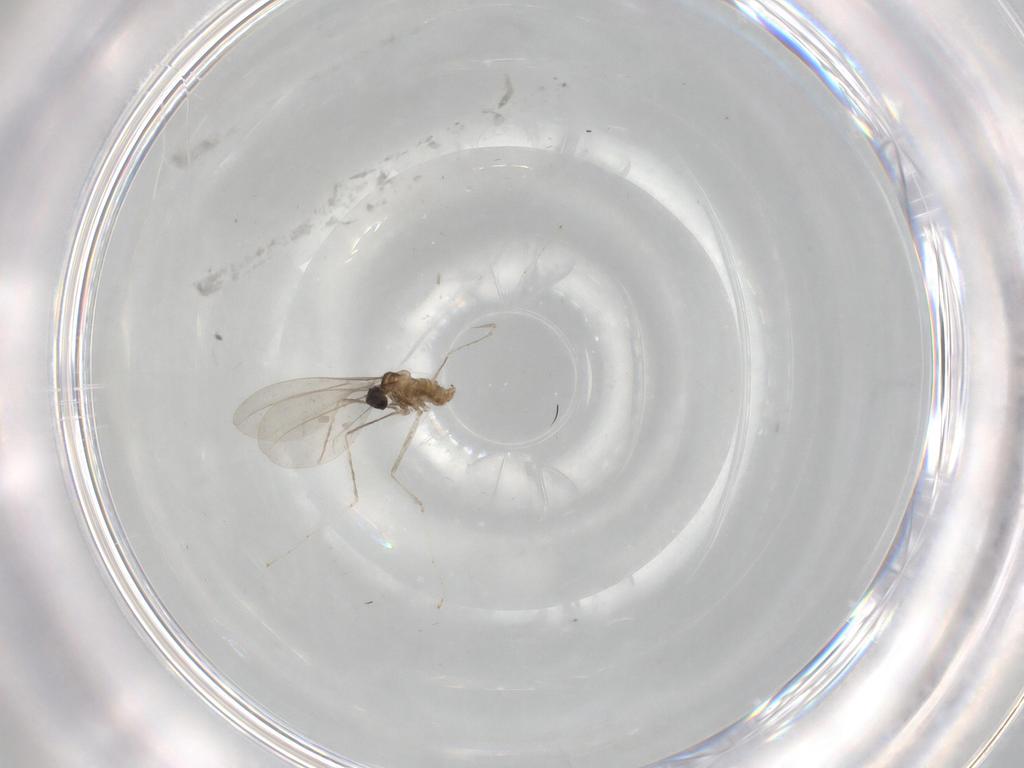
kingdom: Animalia
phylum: Arthropoda
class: Insecta
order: Diptera
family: Cecidomyiidae
